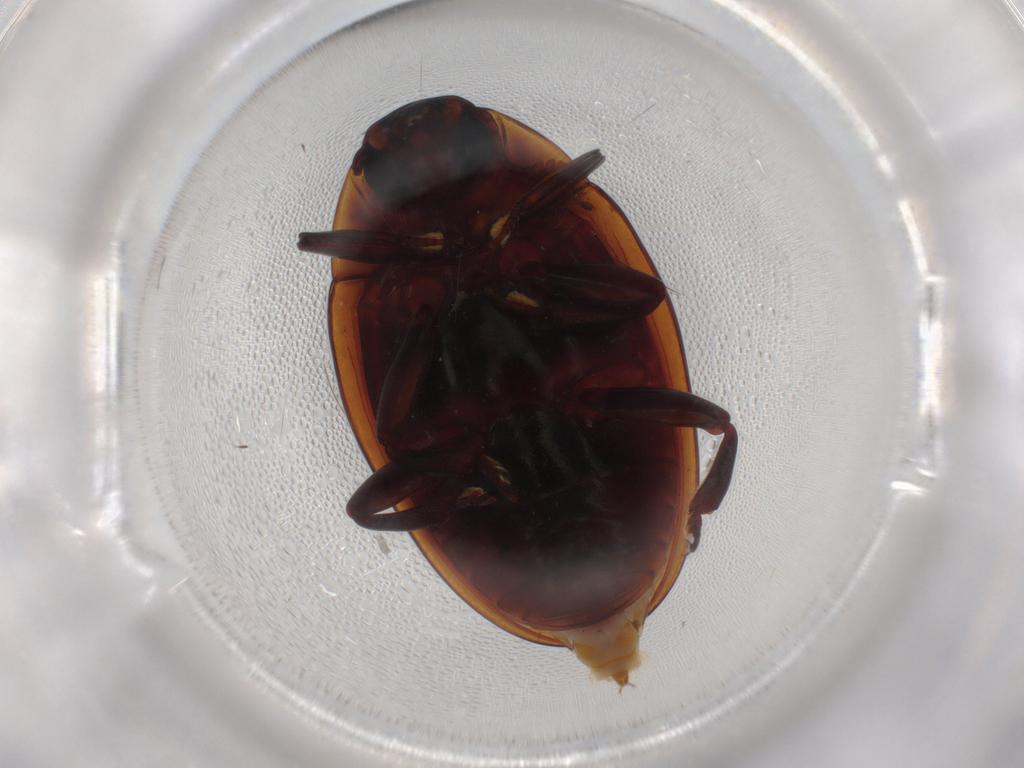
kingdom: Animalia
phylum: Arthropoda
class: Insecta
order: Coleoptera
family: Zopheridae
